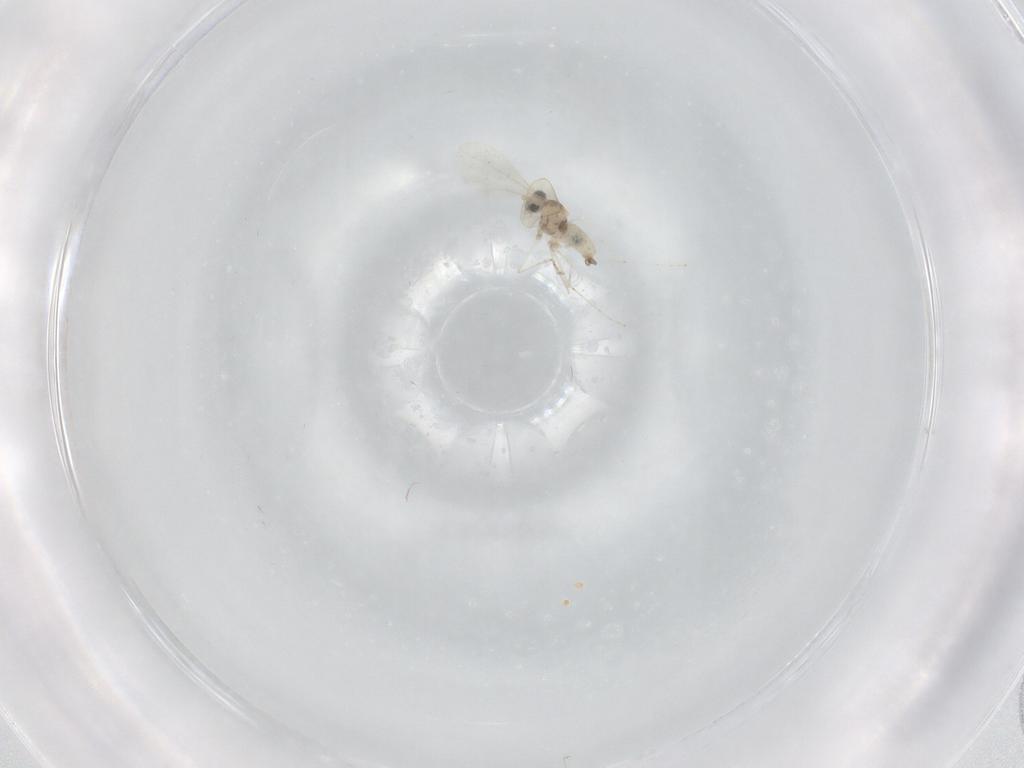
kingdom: Animalia
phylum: Arthropoda
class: Insecta
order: Diptera
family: Cecidomyiidae
